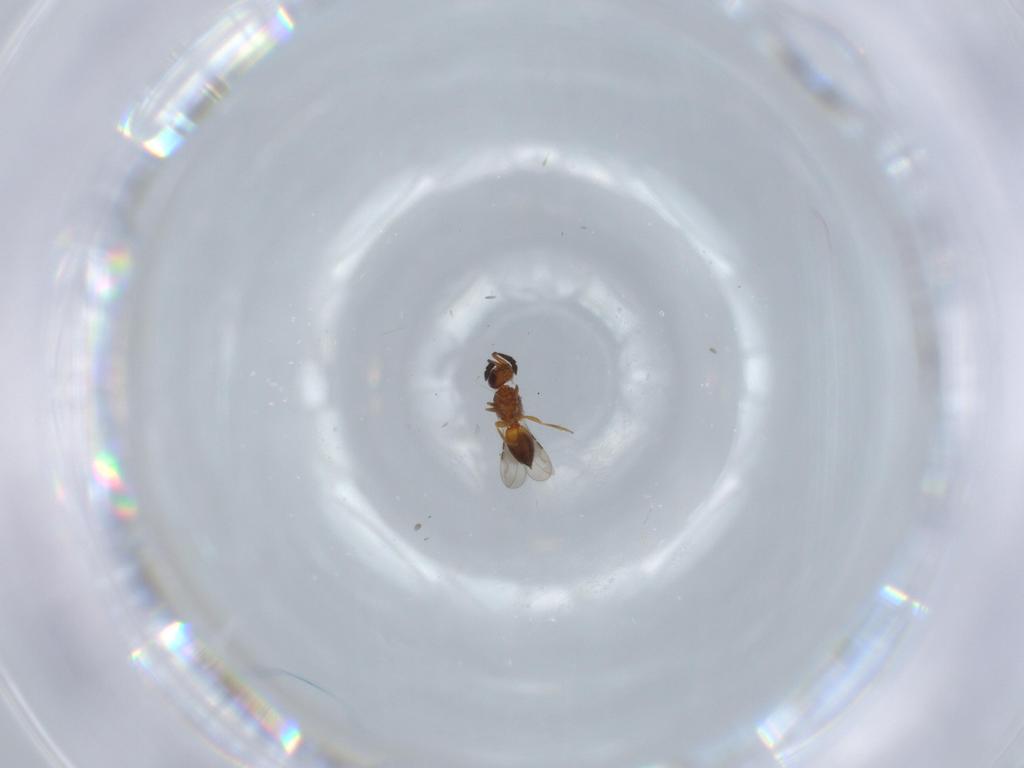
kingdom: Animalia
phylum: Arthropoda
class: Insecta
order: Hymenoptera
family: Ceraphronidae
